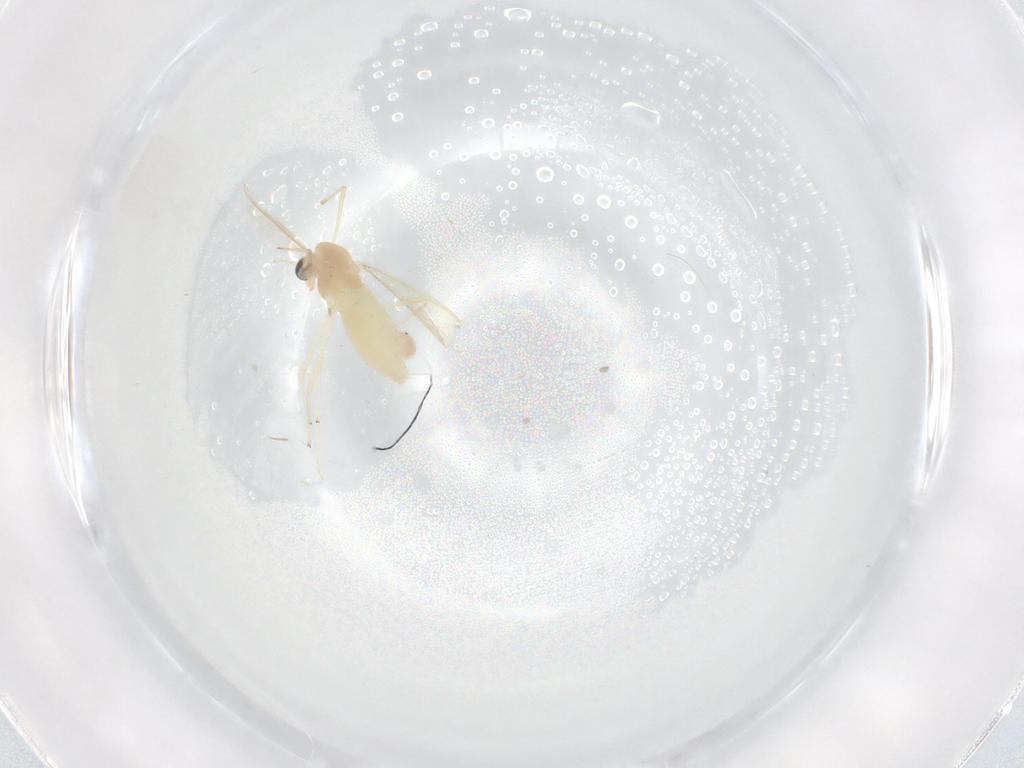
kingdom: Animalia
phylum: Arthropoda
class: Insecta
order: Diptera
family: Chironomidae
